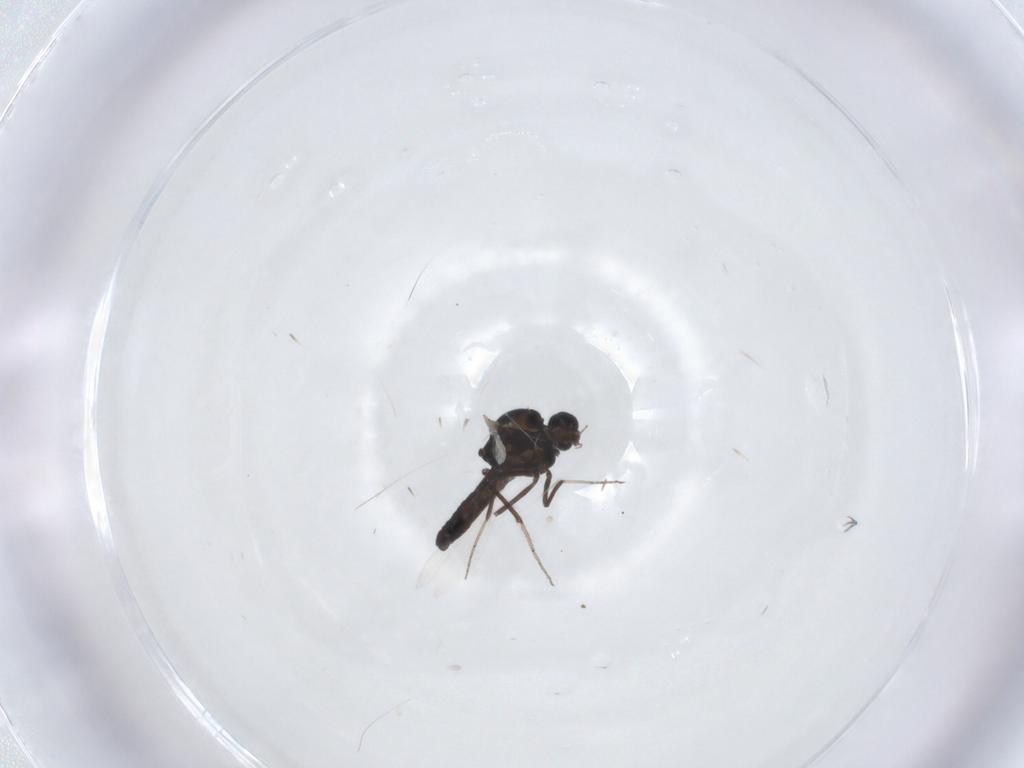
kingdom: Animalia
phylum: Arthropoda
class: Insecta
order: Diptera
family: Ceratopogonidae
